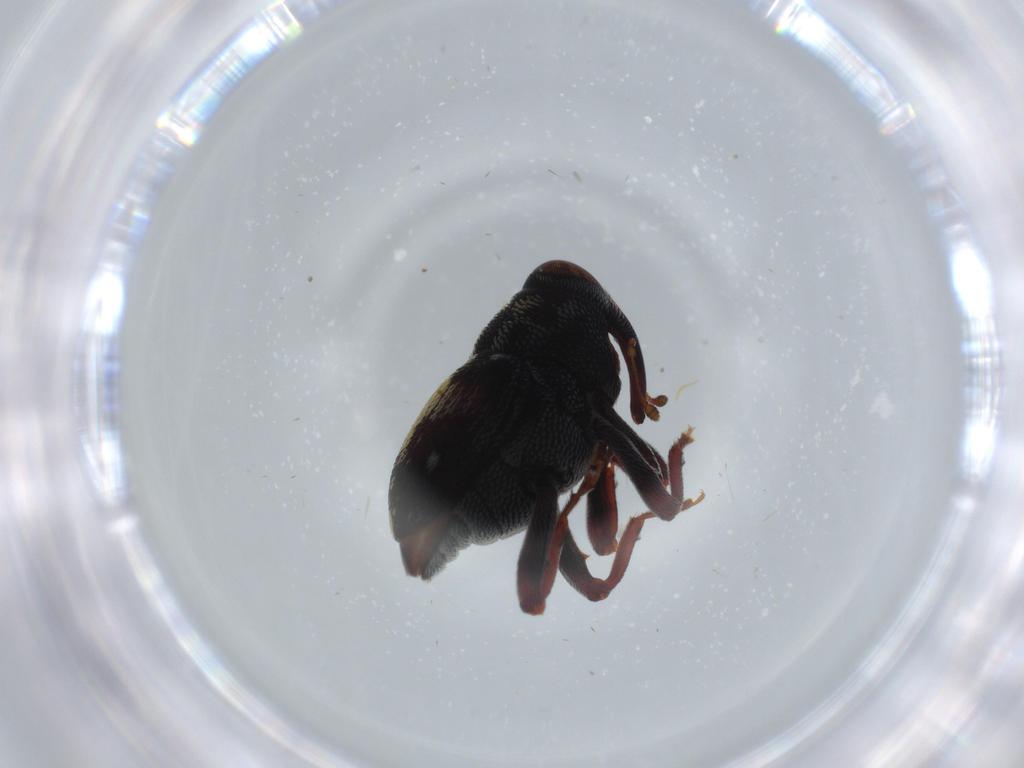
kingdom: Animalia
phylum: Arthropoda
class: Insecta
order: Coleoptera
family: Curculionidae
